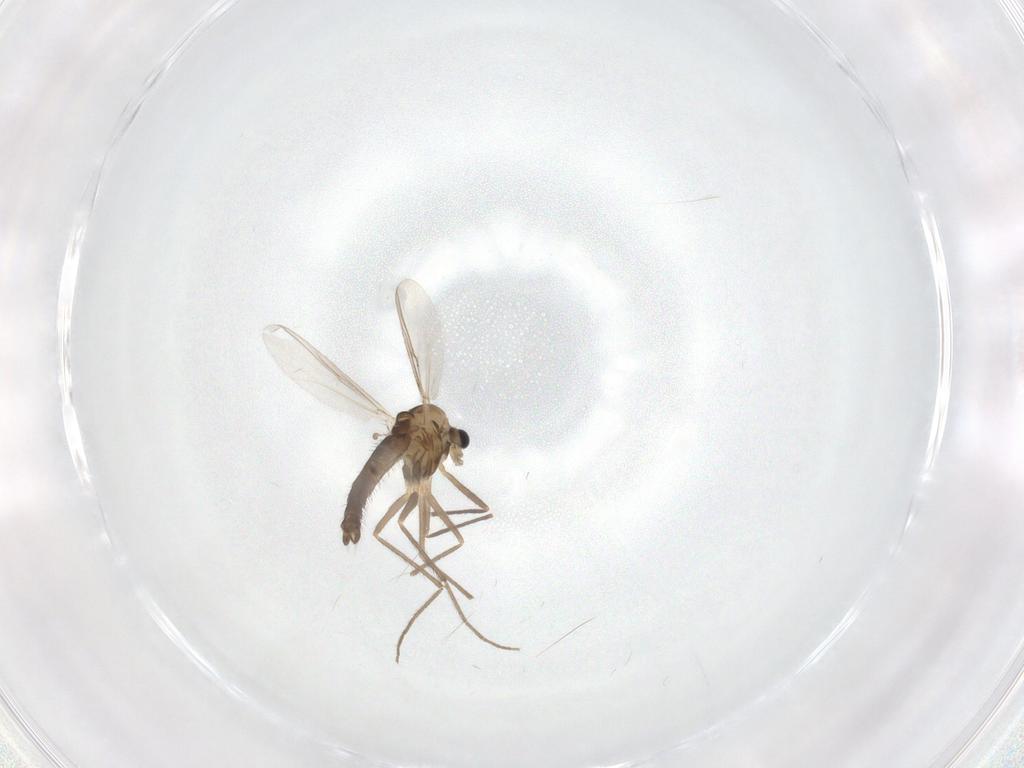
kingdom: Animalia
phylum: Arthropoda
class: Insecta
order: Diptera
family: Chironomidae
